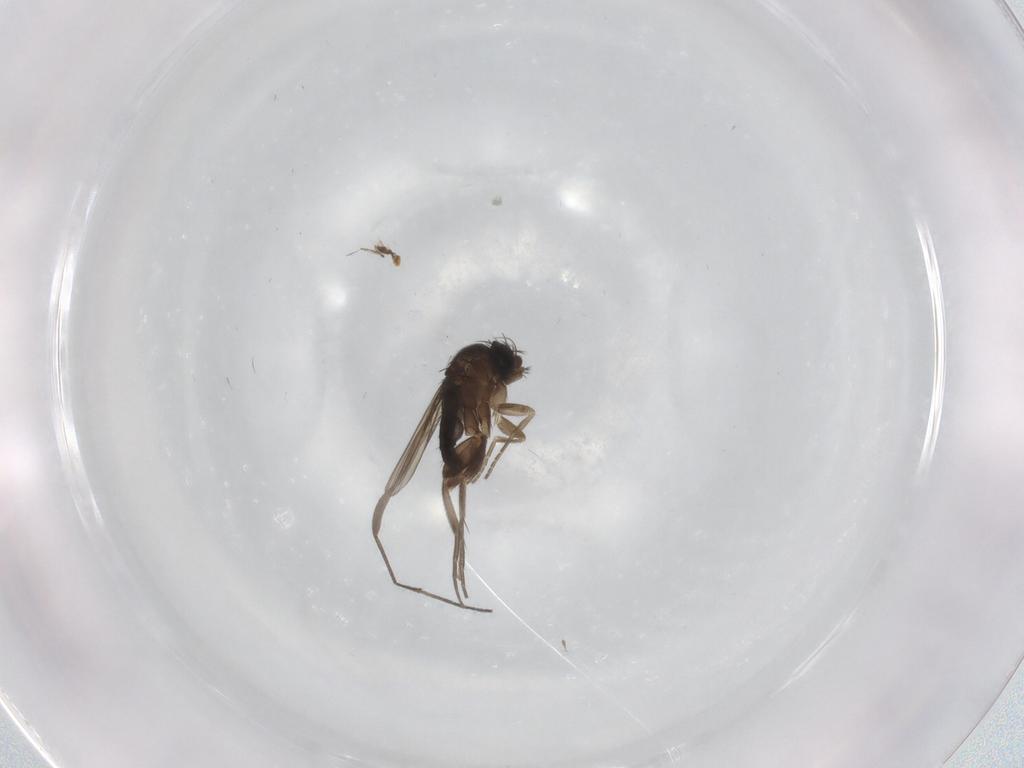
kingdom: Animalia
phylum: Arthropoda
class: Insecta
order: Diptera
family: Phoridae
